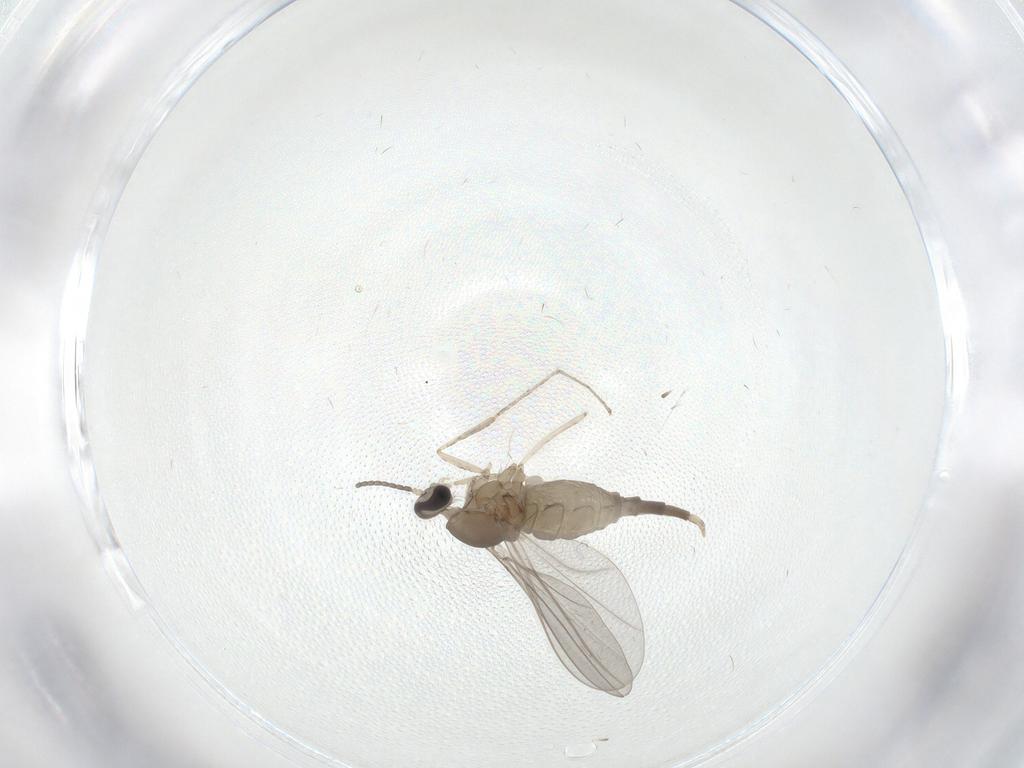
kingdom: Animalia
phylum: Arthropoda
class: Insecta
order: Diptera
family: Cecidomyiidae
